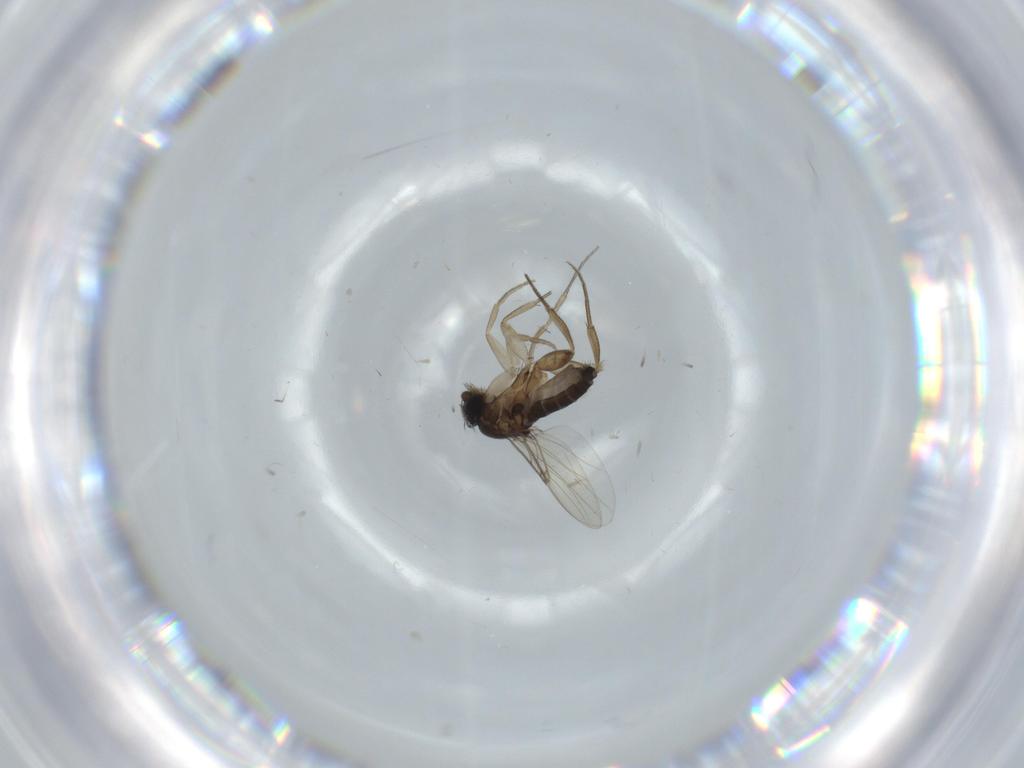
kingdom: Animalia
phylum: Arthropoda
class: Insecta
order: Diptera
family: Phoridae
